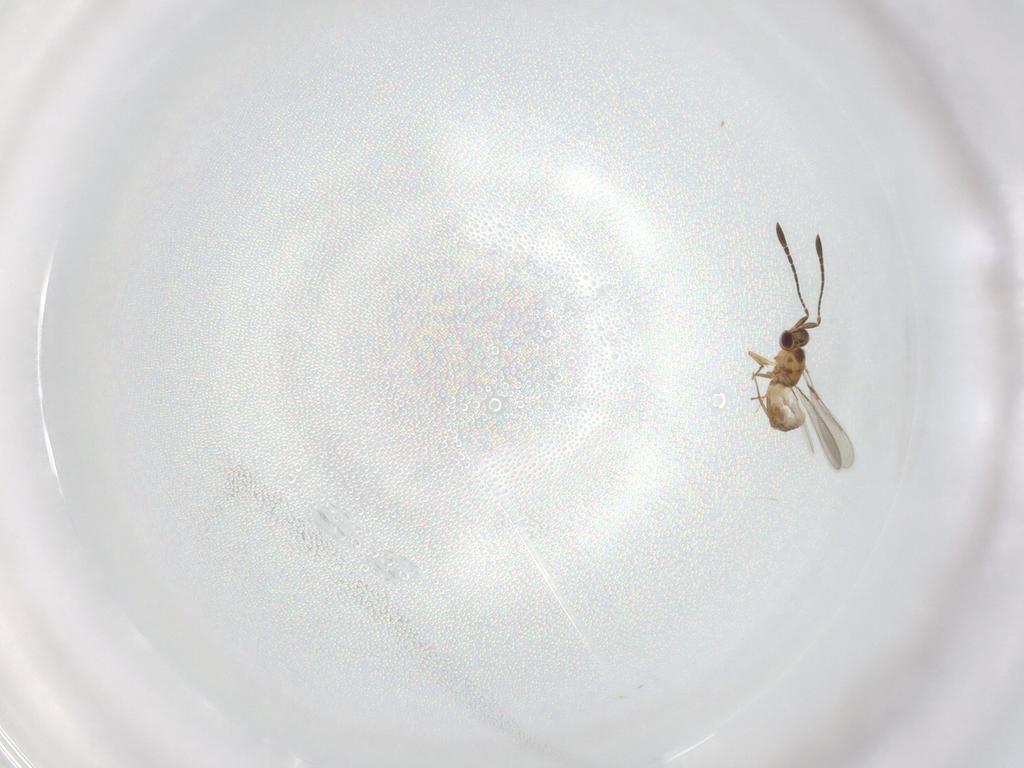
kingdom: Animalia
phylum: Arthropoda
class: Insecta
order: Hymenoptera
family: Mymaridae
